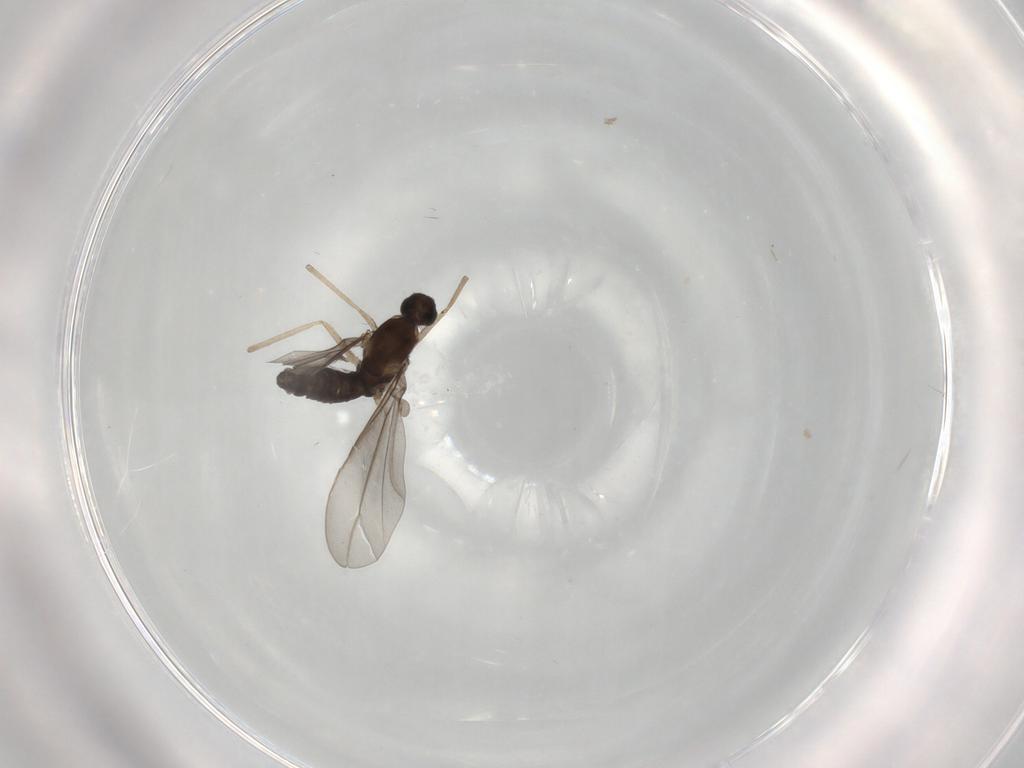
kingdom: Animalia
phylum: Arthropoda
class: Insecta
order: Diptera
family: Cecidomyiidae
